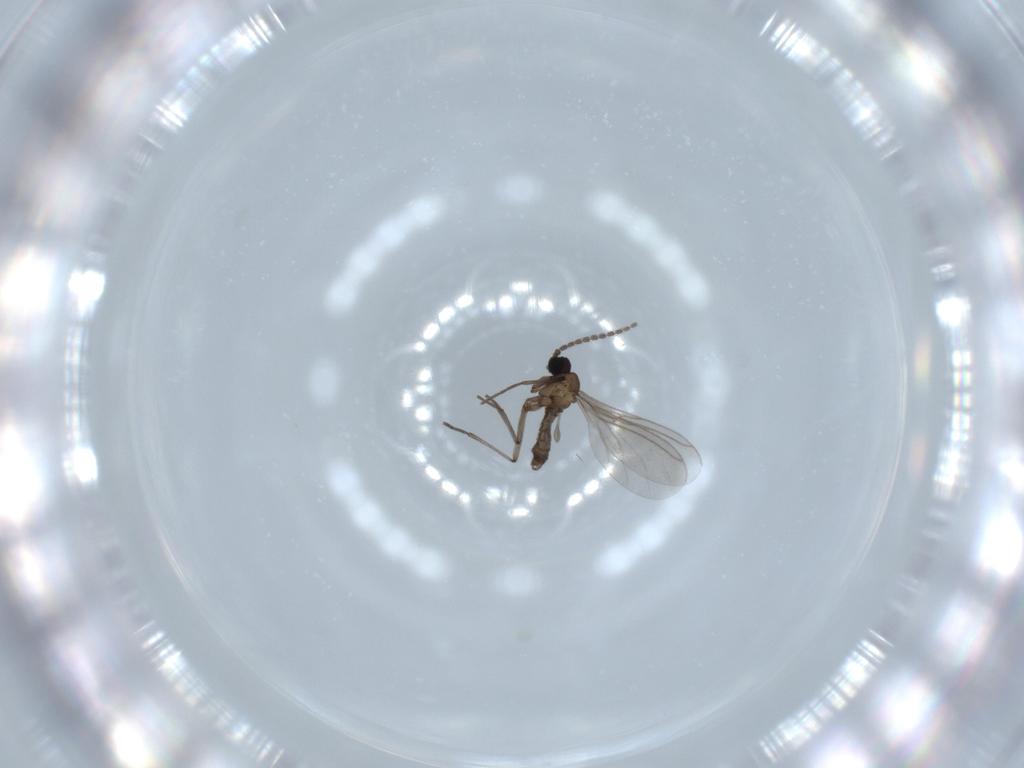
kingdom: Animalia
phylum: Arthropoda
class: Insecta
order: Diptera
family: Sciaridae
